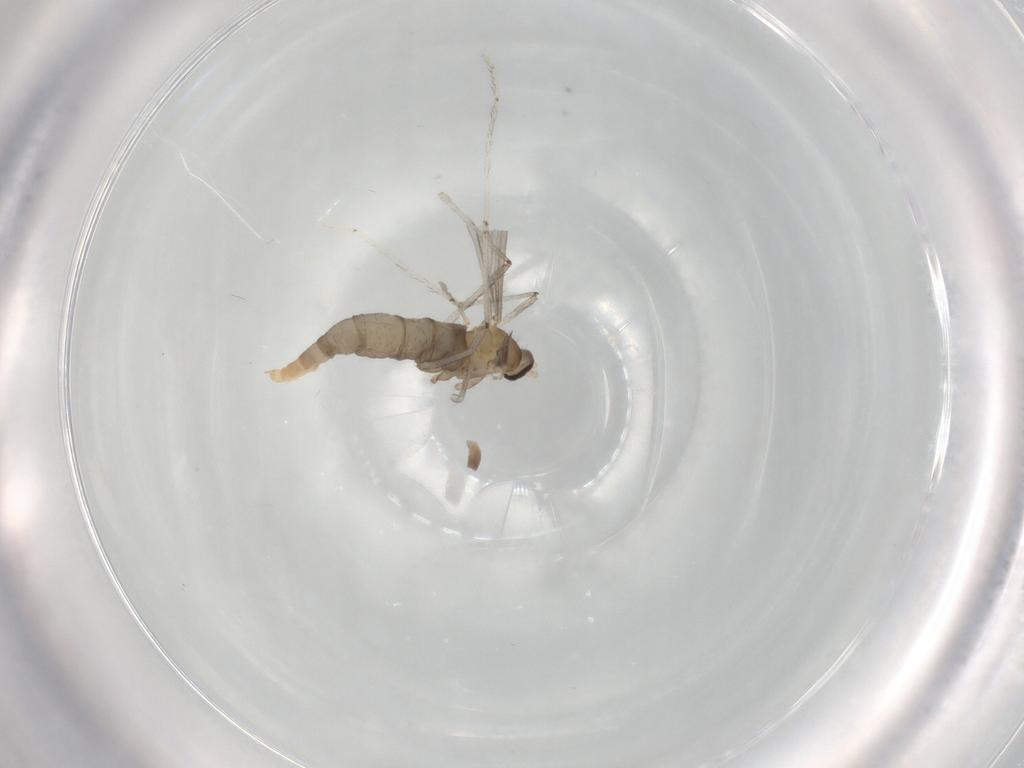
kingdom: Animalia
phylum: Arthropoda
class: Insecta
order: Diptera
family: Cecidomyiidae
